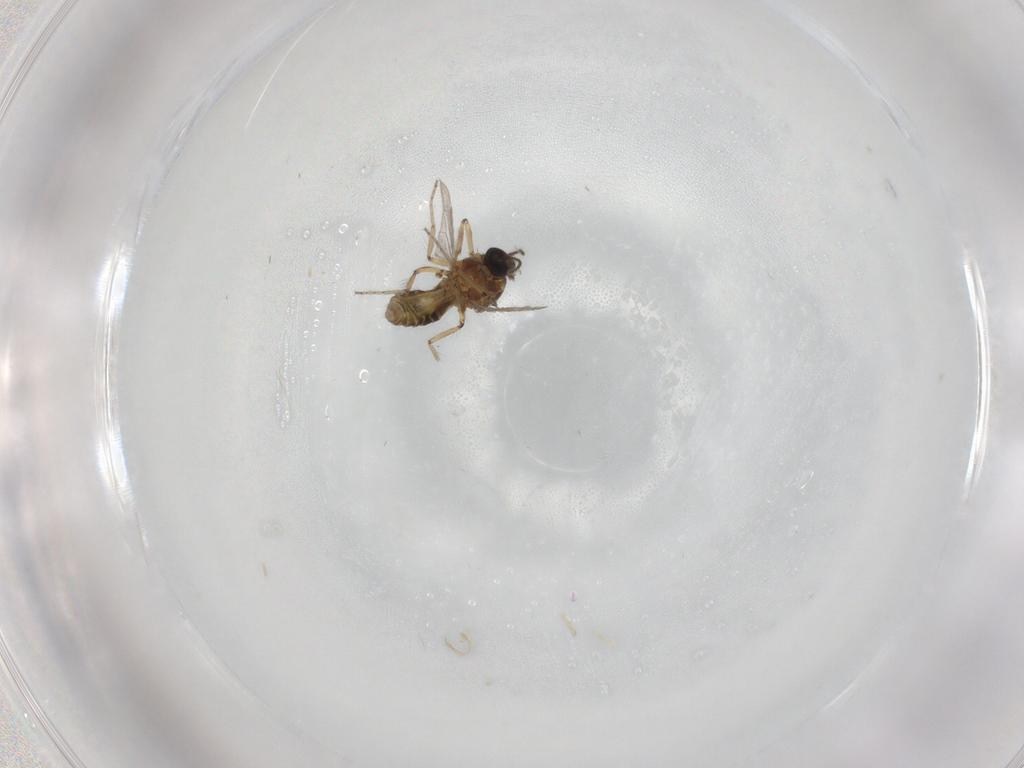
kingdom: Animalia
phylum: Arthropoda
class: Insecta
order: Diptera
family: Ceratopogonidae
